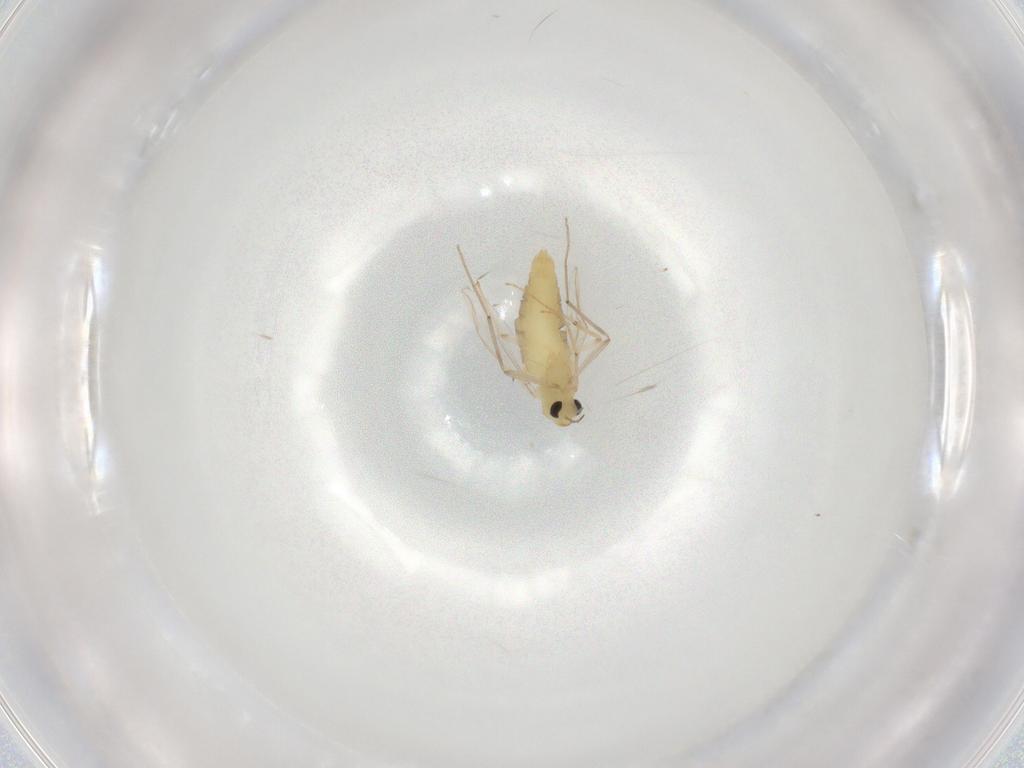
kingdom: Animalia
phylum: Arthropoda
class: Insecta
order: Diptera
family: Chironomidae
